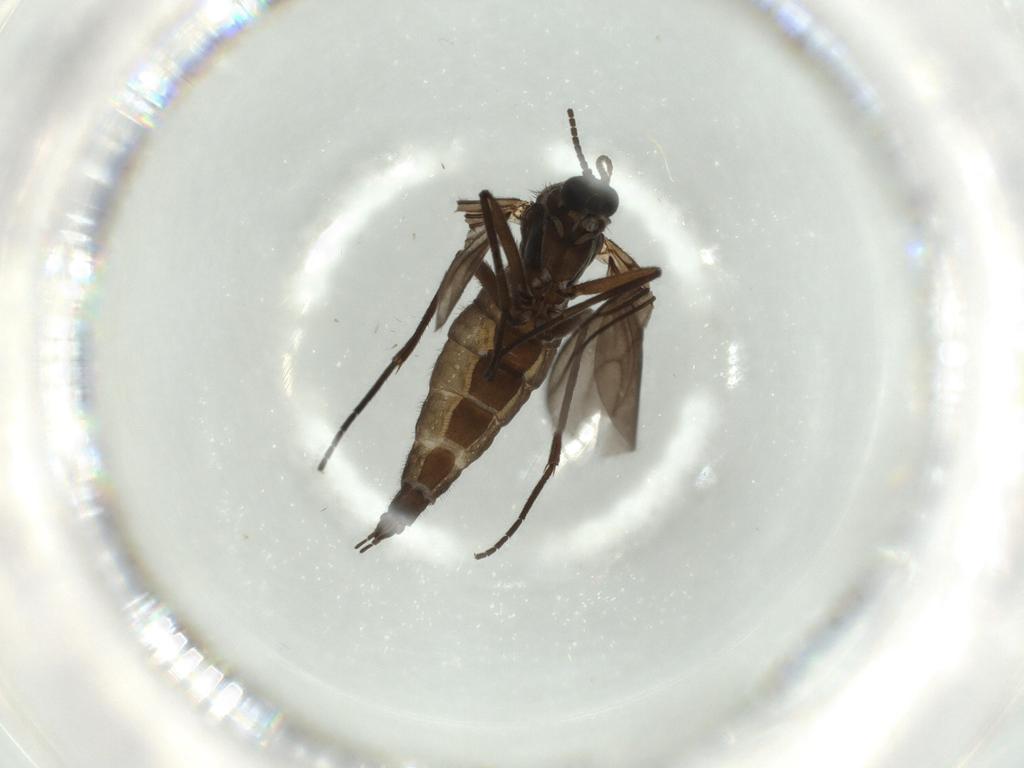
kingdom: Animalia
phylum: Arthropoda
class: Insecta
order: Diptera
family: Sciaridae
